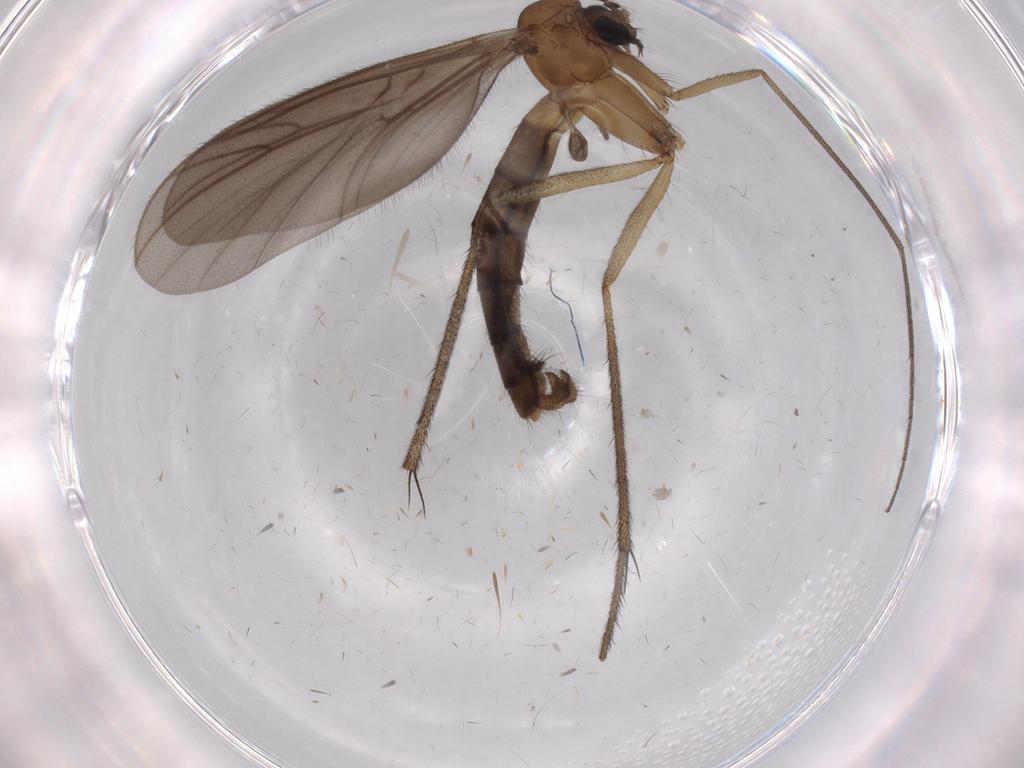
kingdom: Animalia
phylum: Arthropoda
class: Insecta
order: Diptera
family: Ditomyiidae
